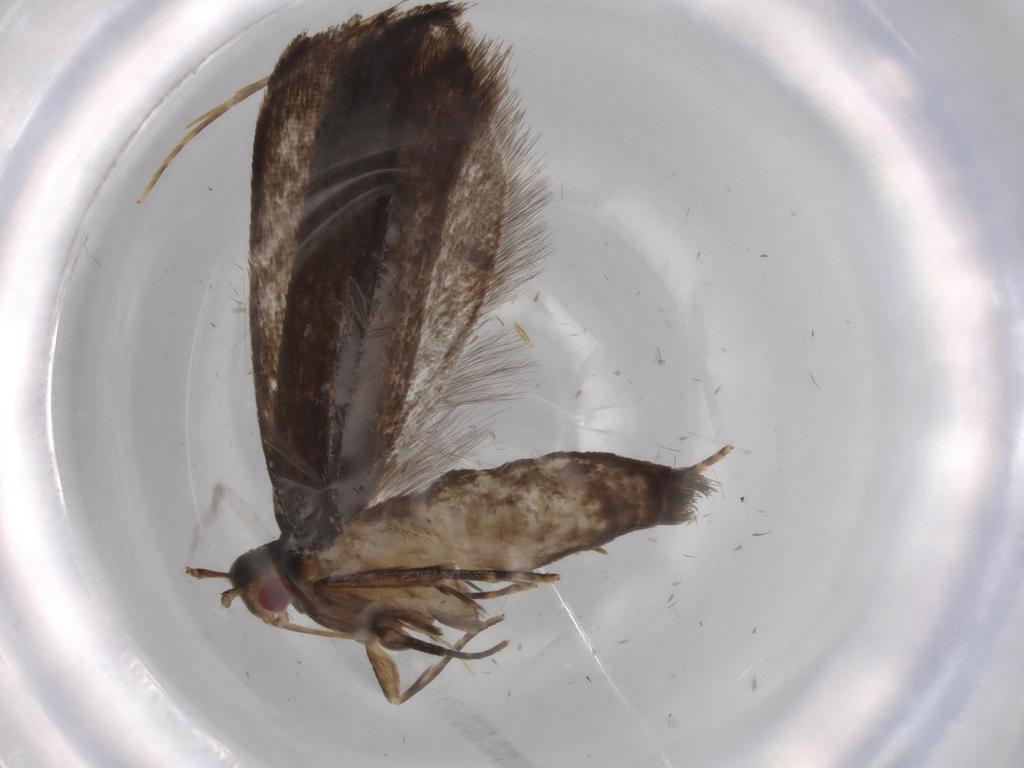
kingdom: Animalia
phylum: Arthropoda
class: Insecta
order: Lepidoptera
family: Gelechiidae
